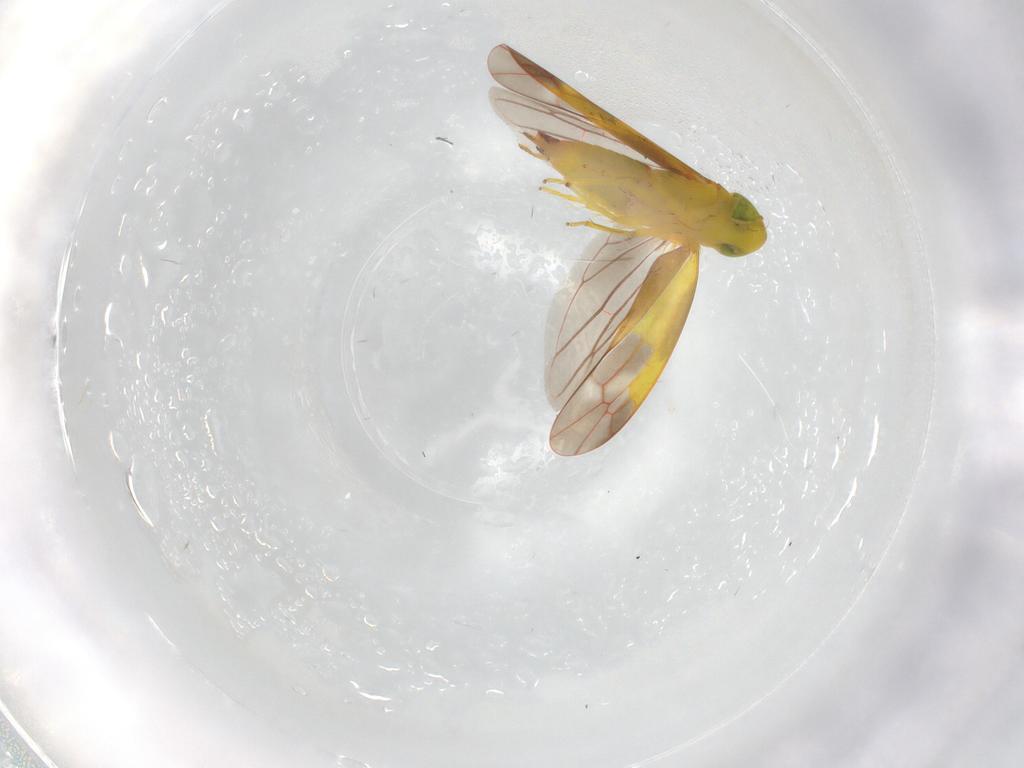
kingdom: Animalia
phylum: Arthropoda
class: Insecta
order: Hemiptera
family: Cicadellidae
